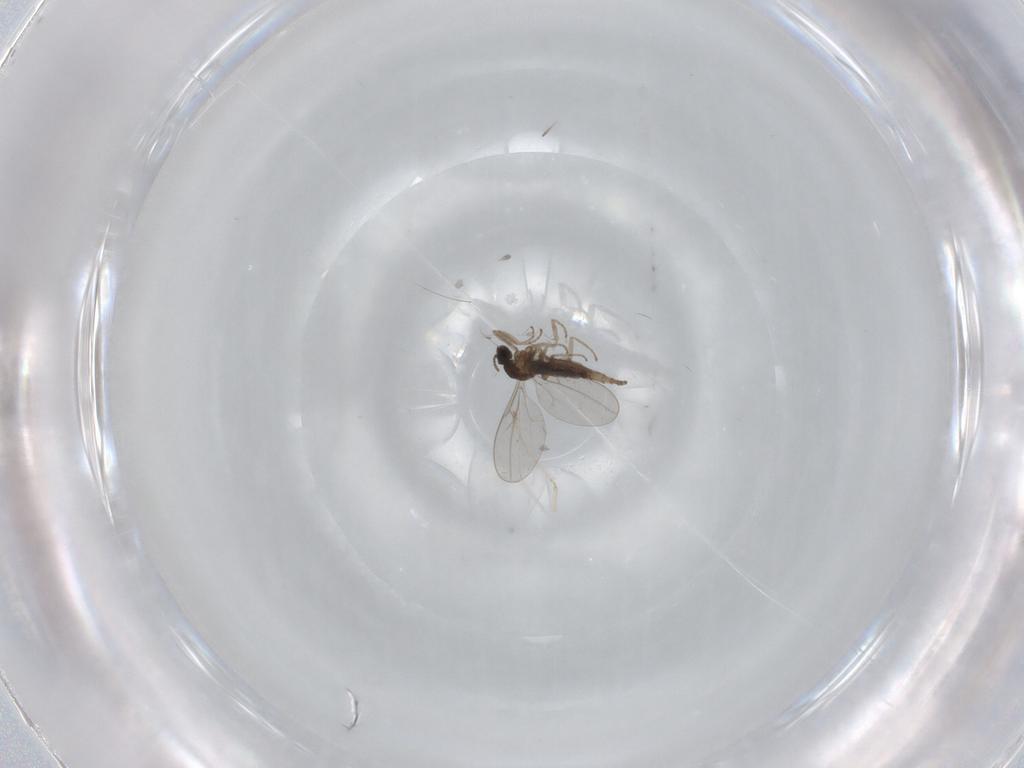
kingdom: Animalia
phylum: Arthropoda
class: Insecta
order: Diptera
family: Cecidomyiidae
